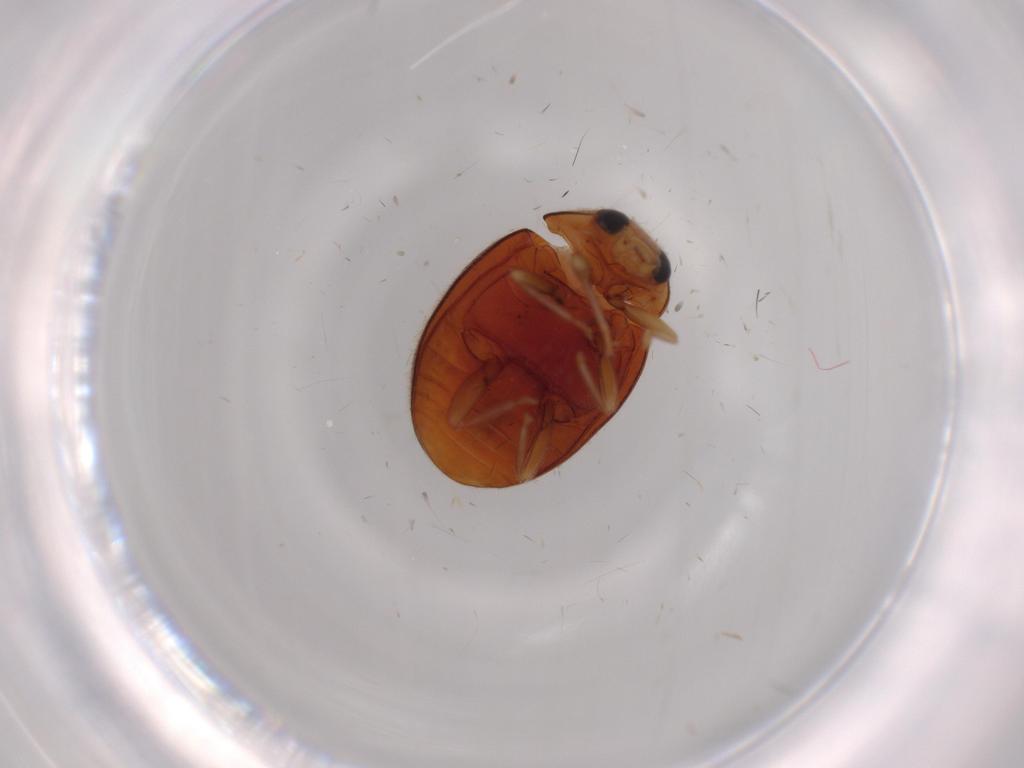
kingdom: Animalia
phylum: Arthropoda
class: Insecta
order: Coleoptera
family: Coccinellidae
